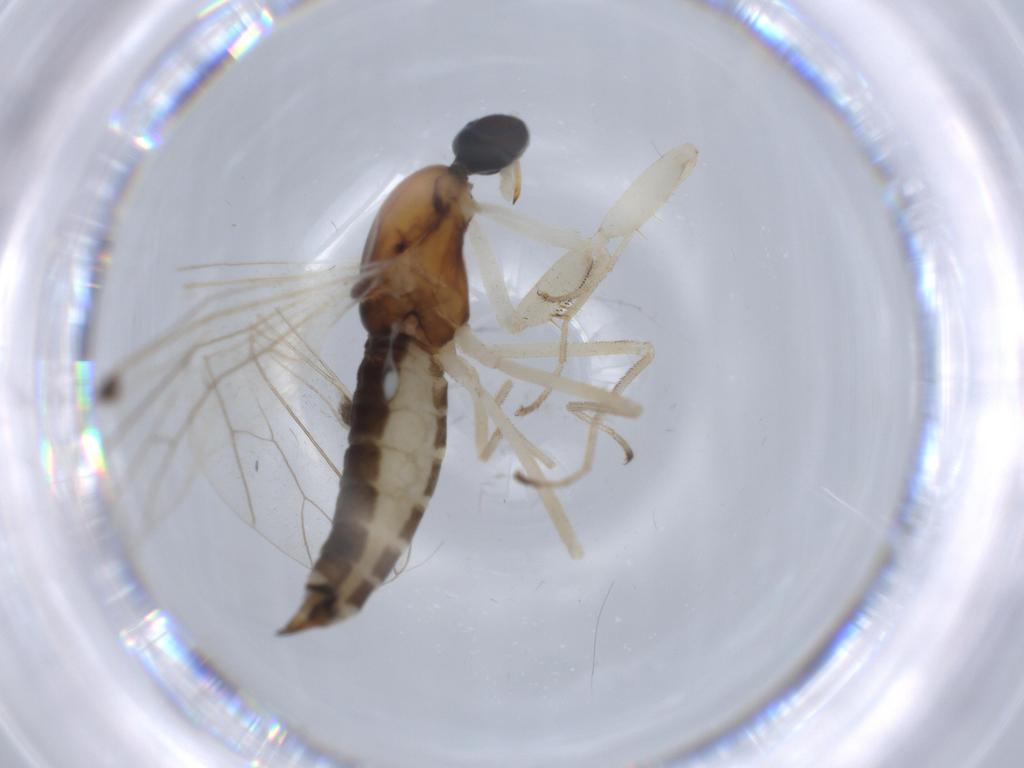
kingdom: Animalia
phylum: Arthropoda
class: Insecta
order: Diptera
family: Cecidomyiidae
